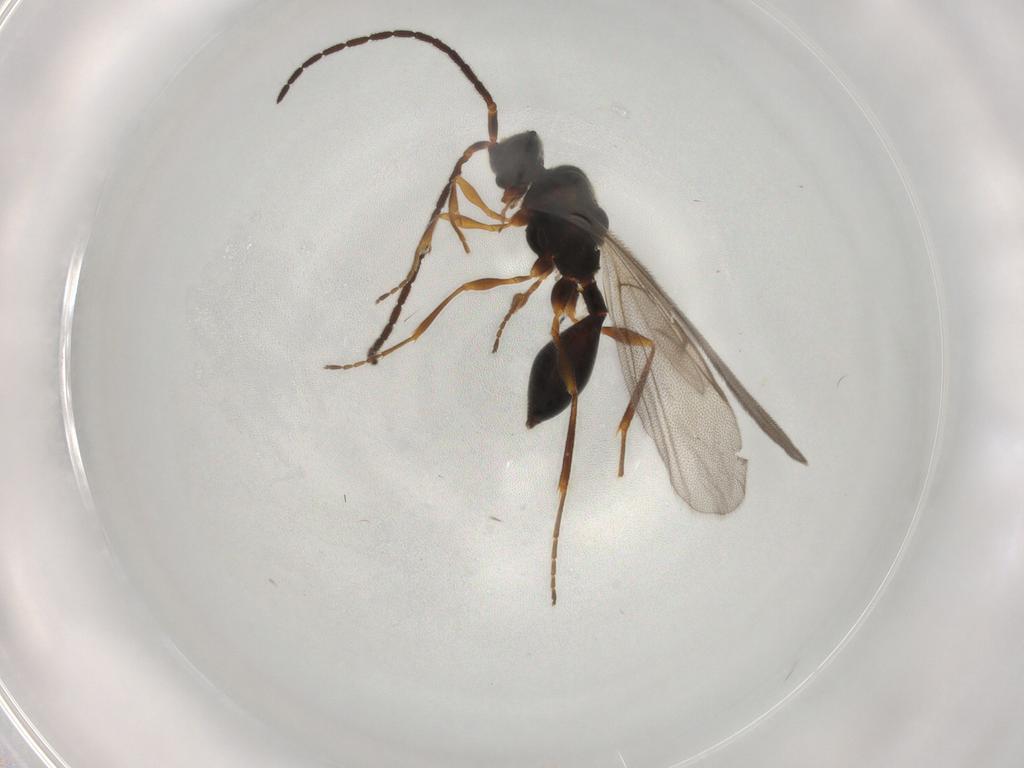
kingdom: Animalia
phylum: Arthropoda
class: Insecta
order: Hymenoptera
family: Diapriidae
